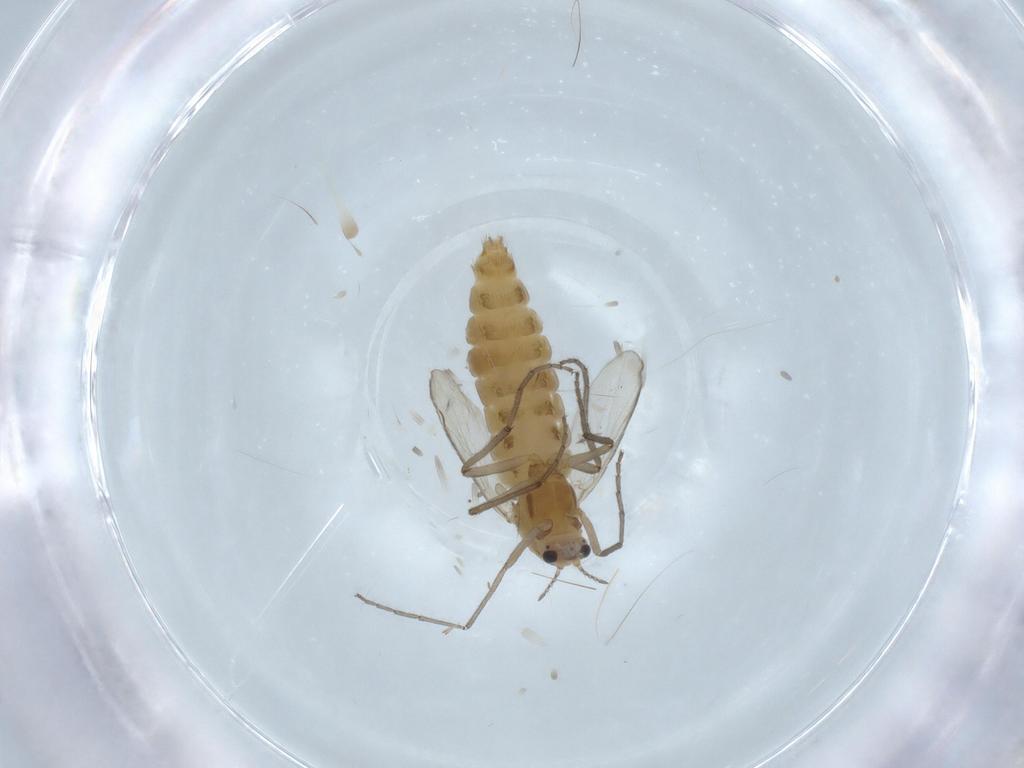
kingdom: Animalia
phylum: Arthropoda
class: Insecta
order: Diptera
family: Chironomidae
